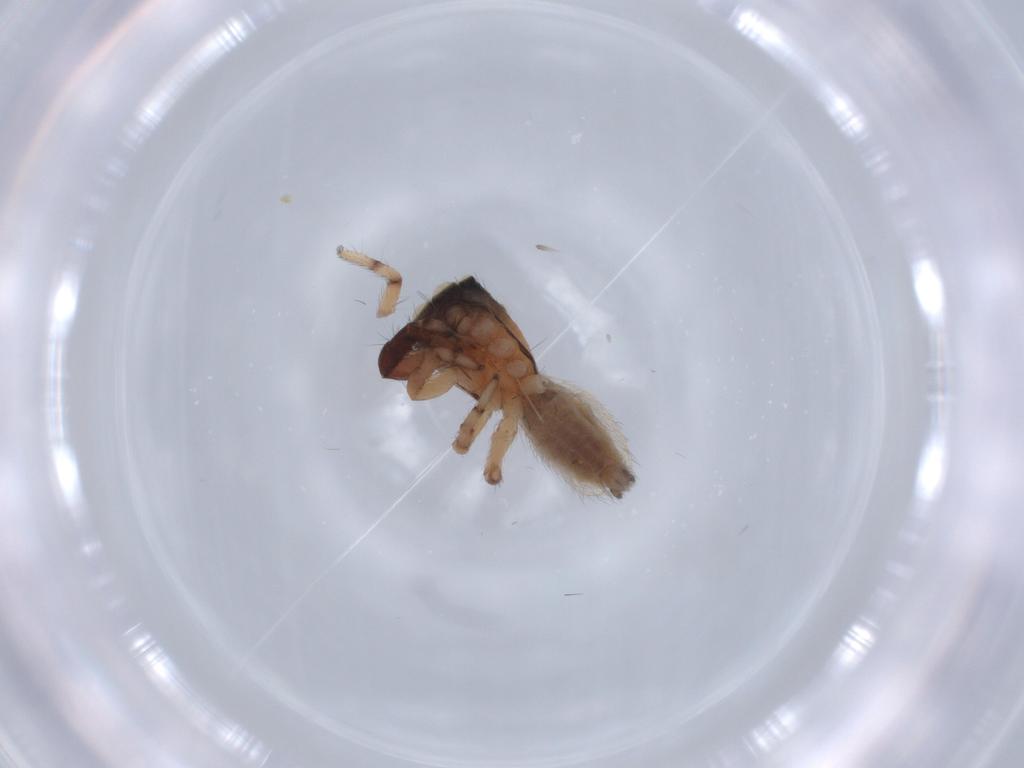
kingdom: Animalia
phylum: Arthropoda
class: Arachnida
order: Araneae
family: Salticidae
